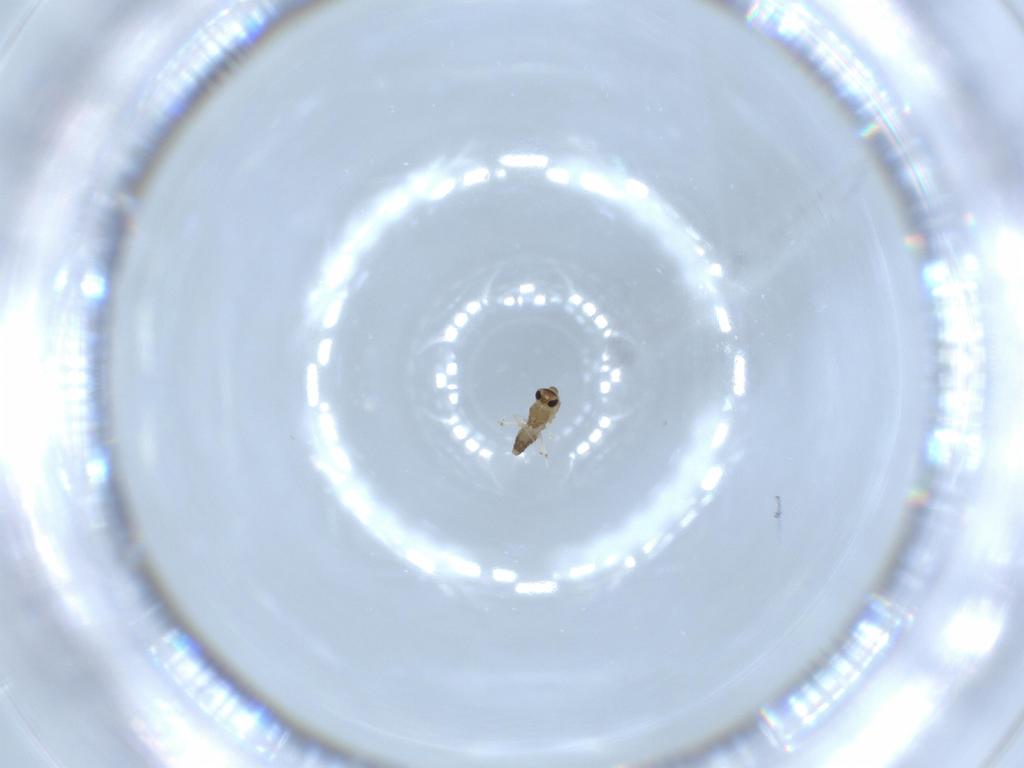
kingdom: Animalia
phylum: Arthropoda
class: Insecta
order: Diptera
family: Chironomidae
